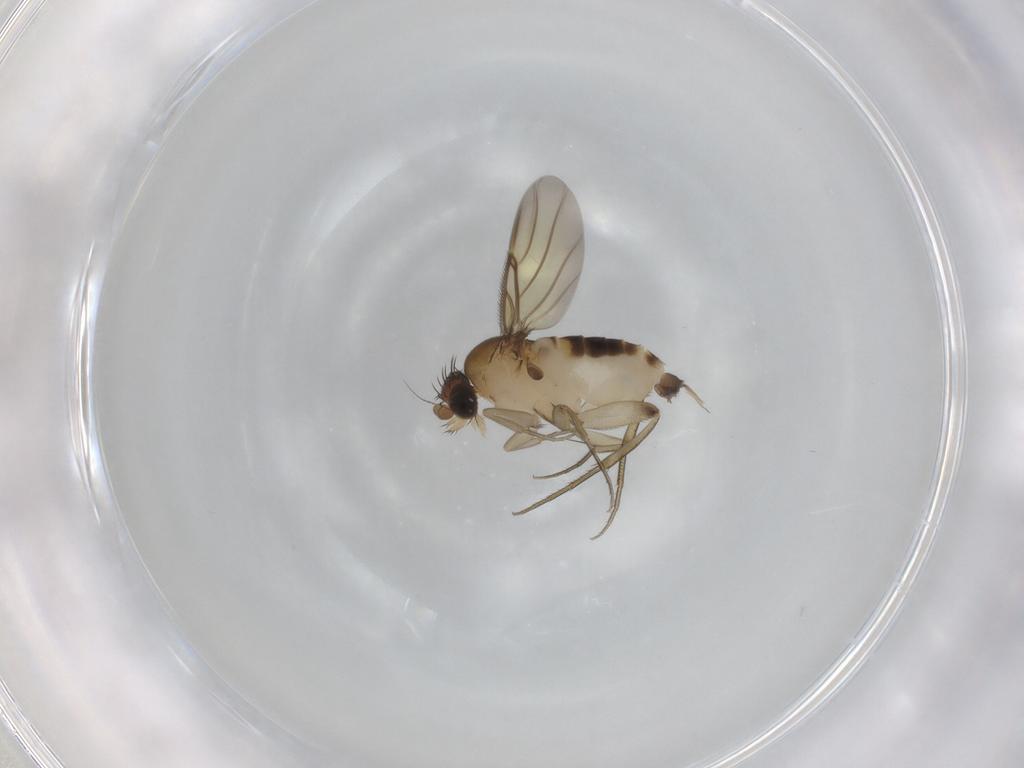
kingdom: Animalia
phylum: Arthropoda
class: Insecta
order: Diptera
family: Phoridae
